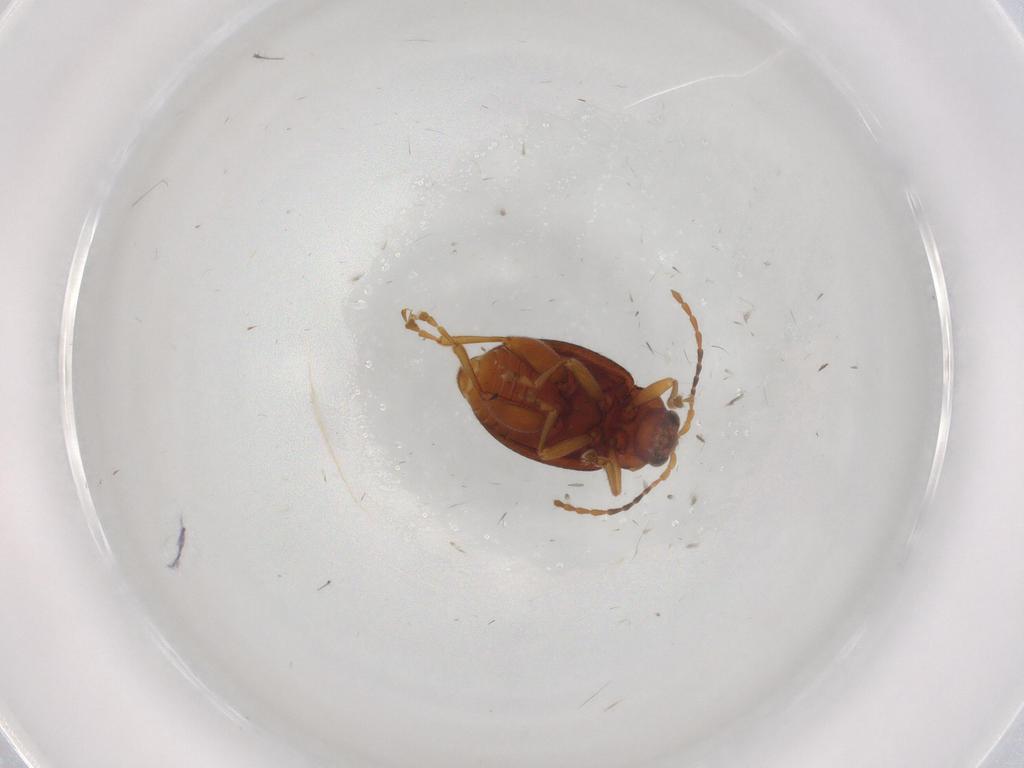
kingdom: Animalia
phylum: Arthropoda
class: Insecta
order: Coleoptera
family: Chrysomelidae
